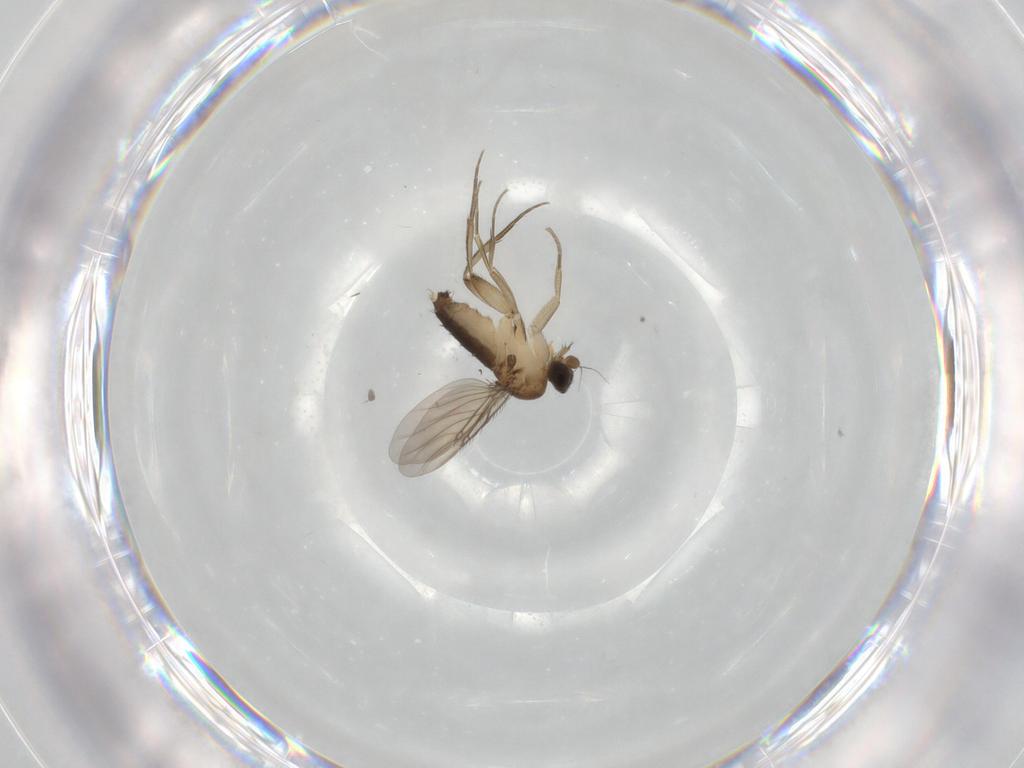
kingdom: Animalia
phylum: Arthropoda
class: Insecta
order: Diptera
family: Phoridae
